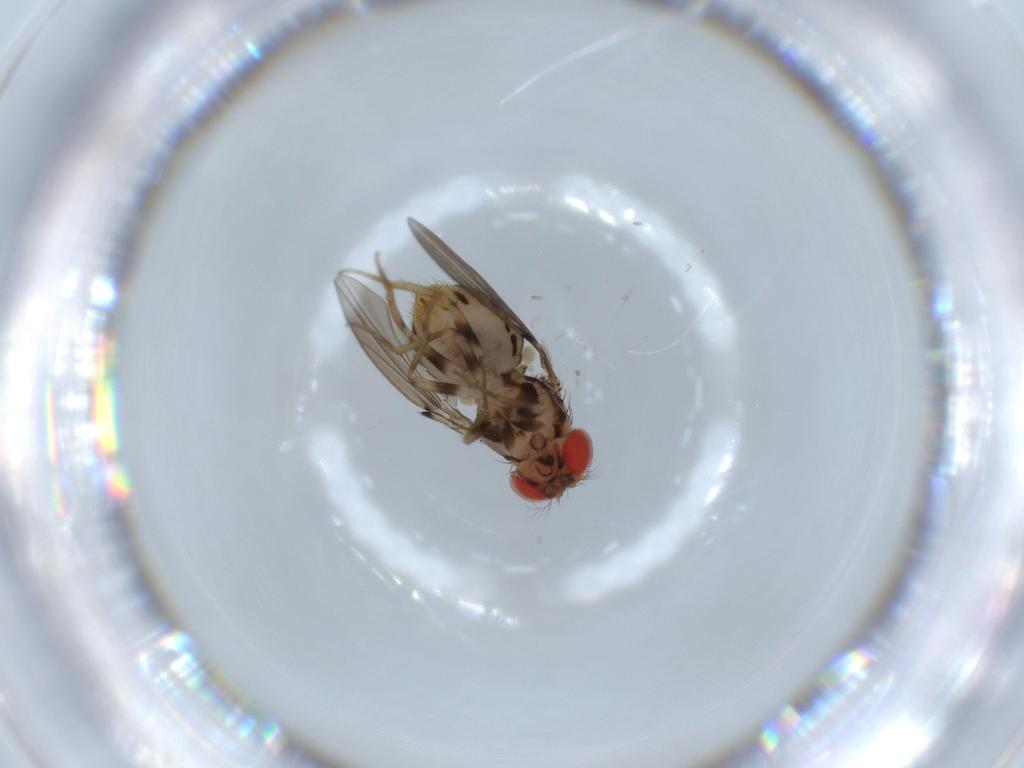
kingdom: Animalia
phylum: Arthropoda
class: Insecta
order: Diptera
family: Drosophilidae
